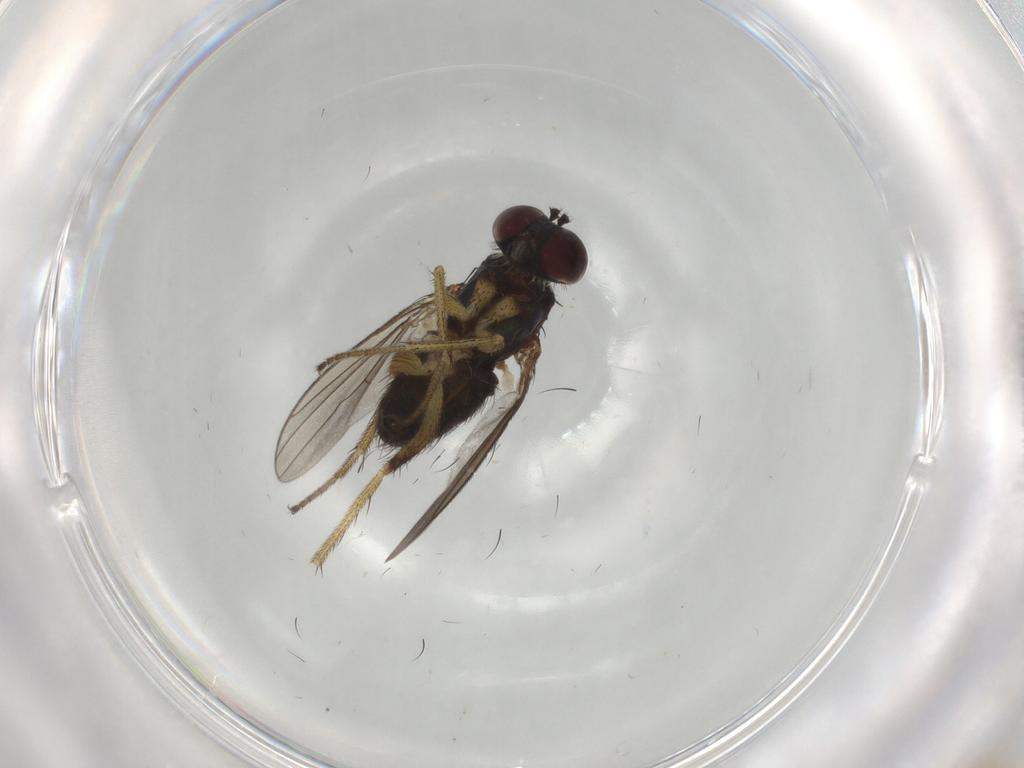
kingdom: Animalia
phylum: Arthropoda
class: Insecta
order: Diptera
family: Dolichopodidae
